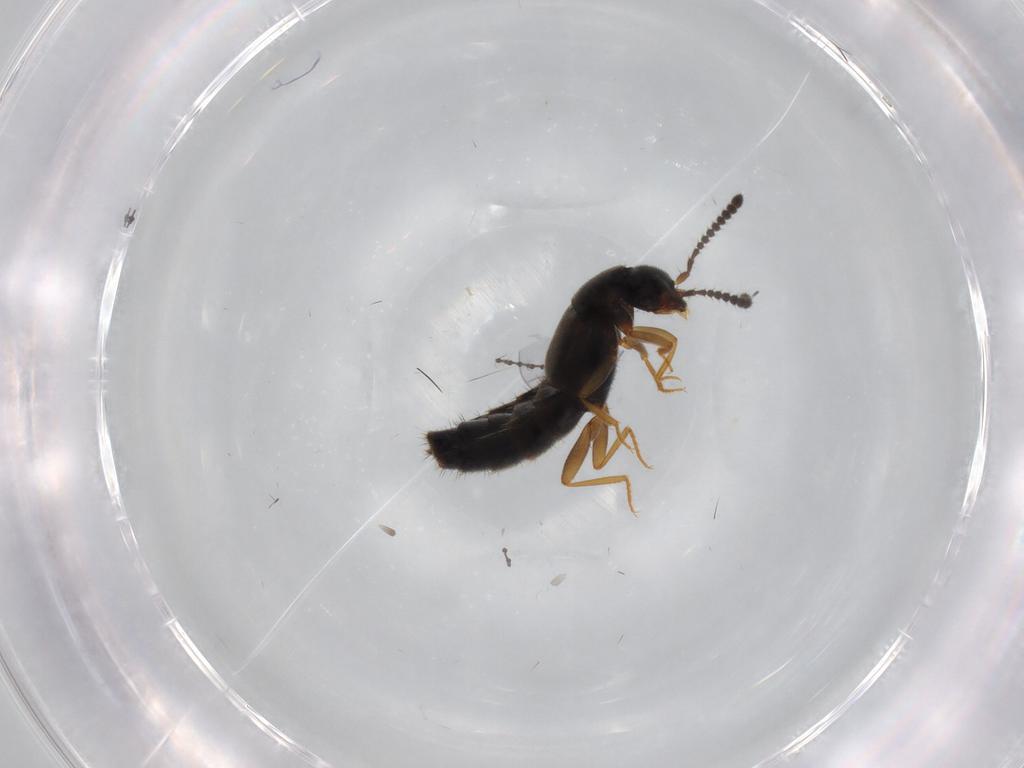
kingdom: Animalia
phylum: Arthropoda
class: Insecta
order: Coleoptera
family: Staphylinidae
